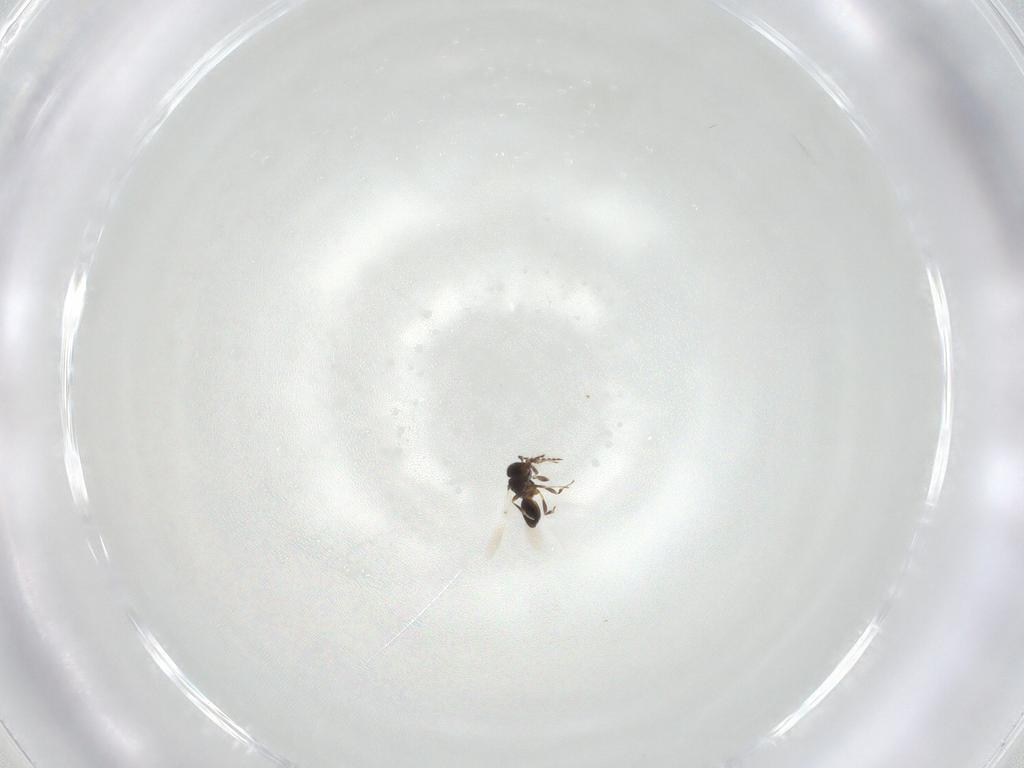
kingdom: Animalia
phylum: Arthropoda
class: Insecta
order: Hymenoptera
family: Platygastridae
